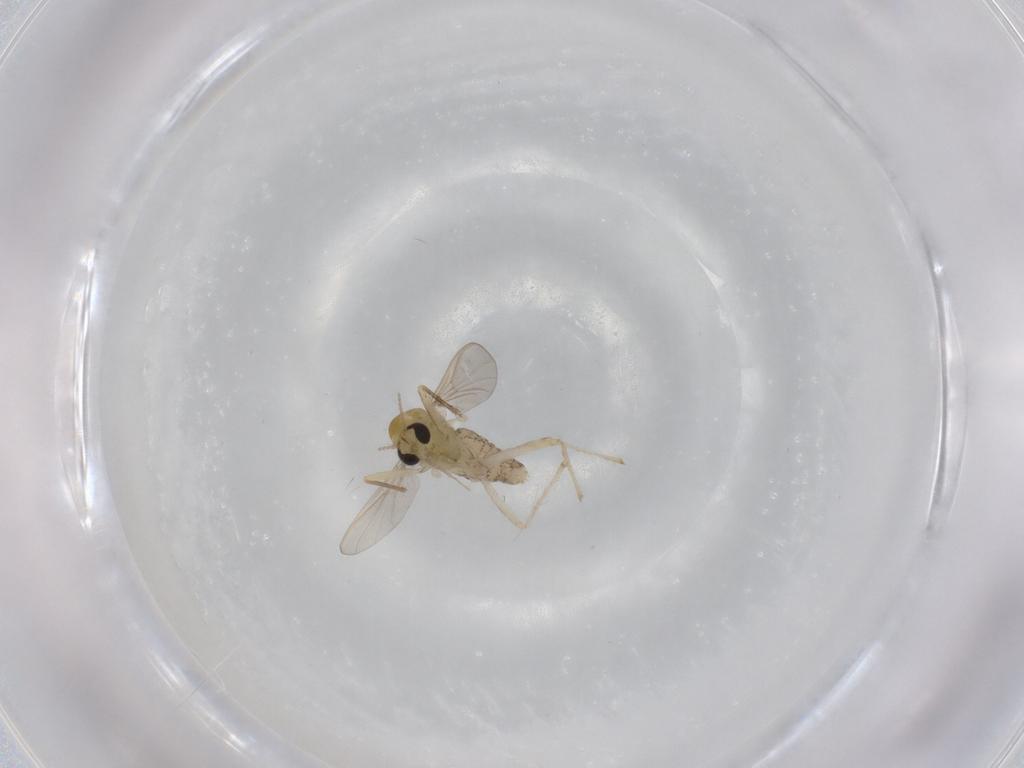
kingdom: Animalia
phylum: Arthropoda
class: Insecta
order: Diptera
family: Chironomidae
